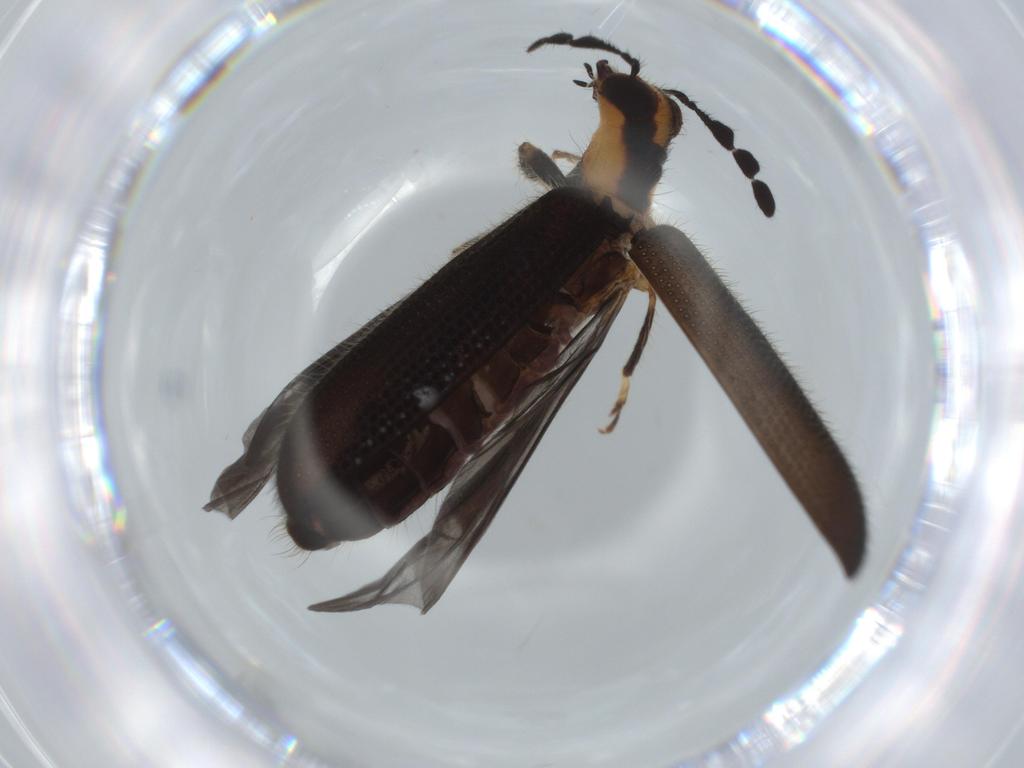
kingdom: Animalia
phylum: Arthropoda
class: Insecta
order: Coleoptera
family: Cleridae
